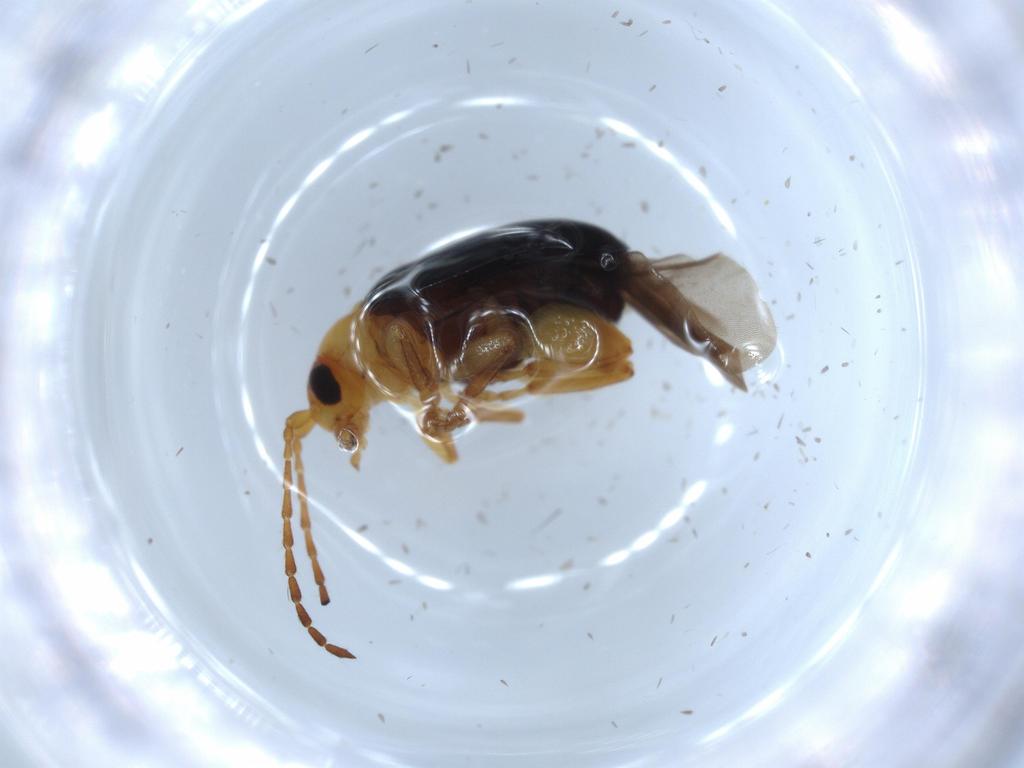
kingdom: Animalia
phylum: Arthropoda
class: Insecta
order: Coleoptera
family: Chrysomelidae
